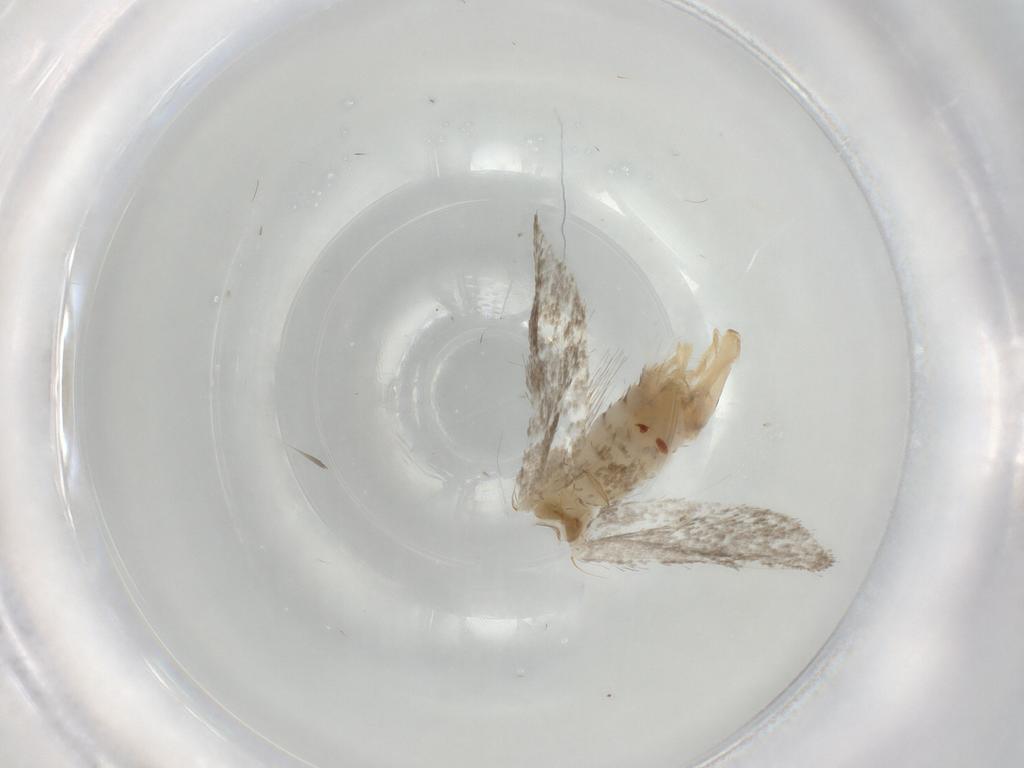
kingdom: Animalia
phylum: Arthropoda
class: Insecta
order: Lepidoptera
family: Tineidae
